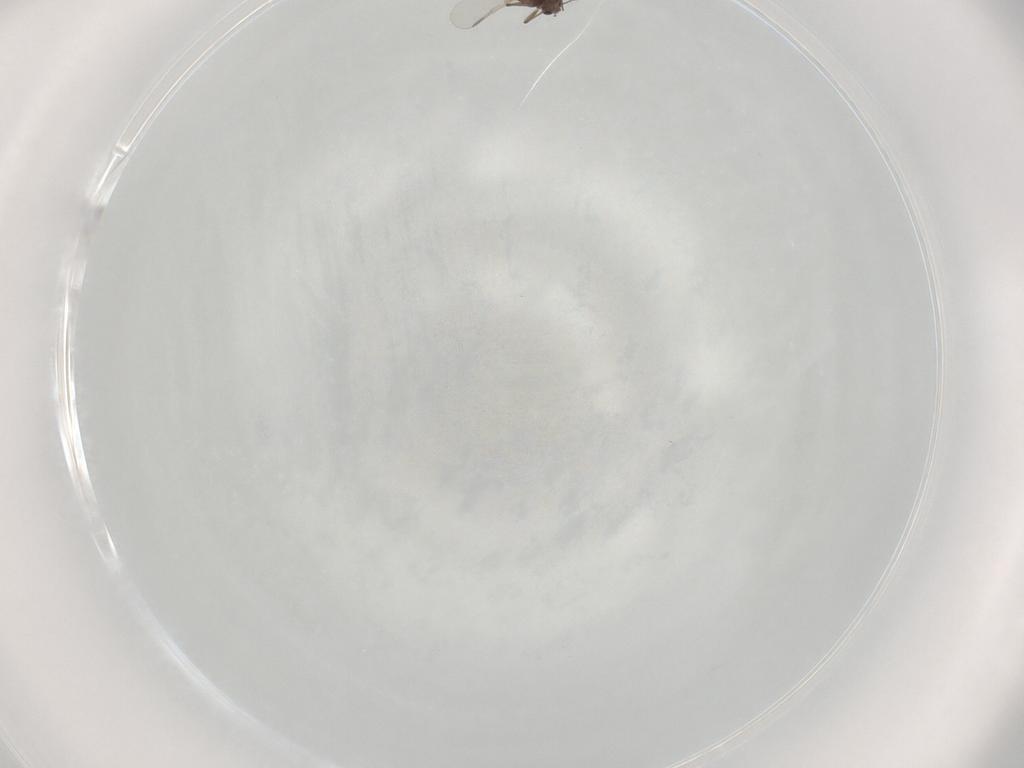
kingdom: Animalia
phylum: Arthropoda
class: Insecta
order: Diptera
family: Chironomidae
